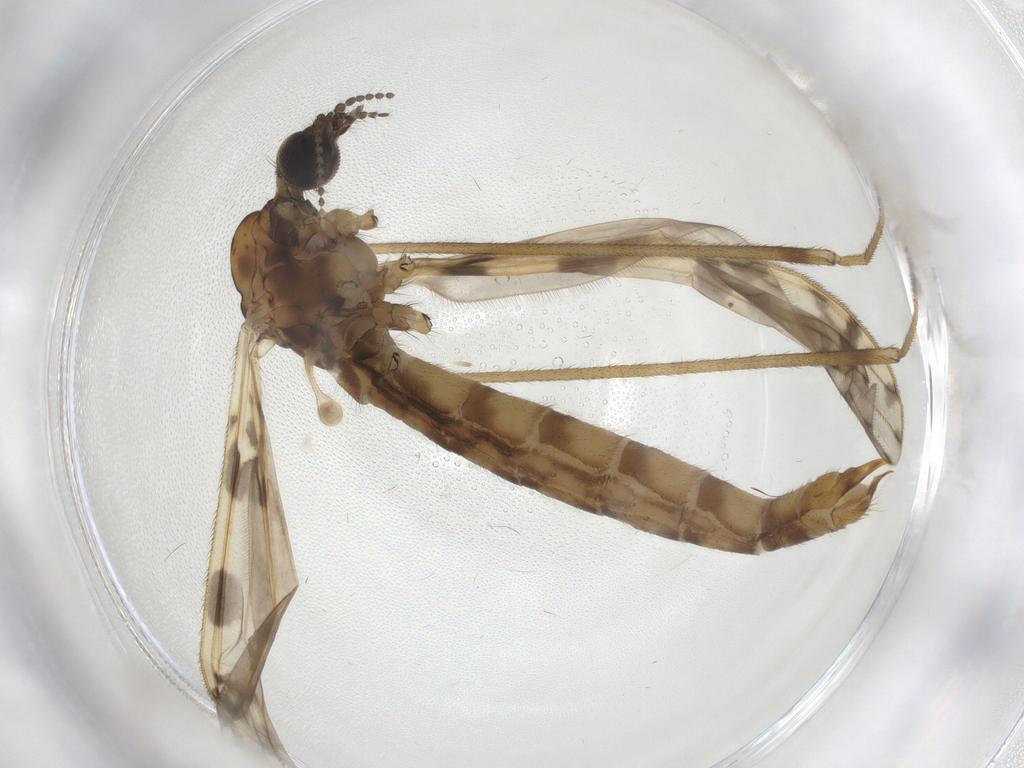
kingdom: Animalia
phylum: Arthropoda
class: Insecta
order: Diptera
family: Limoniidae
